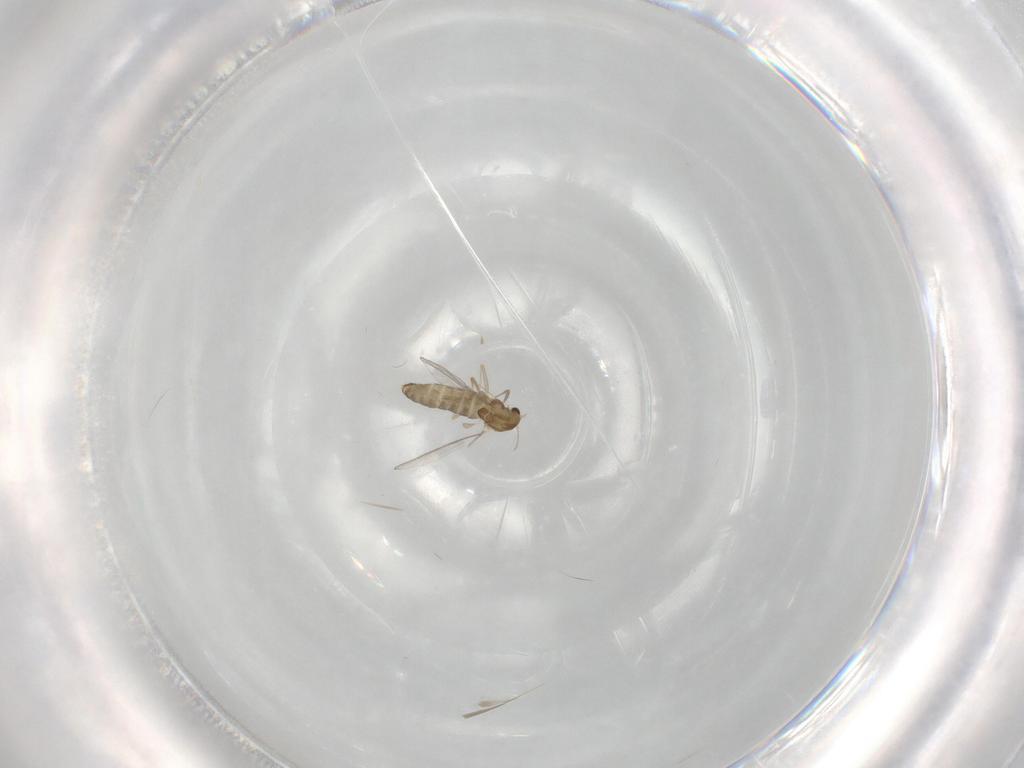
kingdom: Animalia
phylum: Arthropoda
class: Insecta
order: Diptera
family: Chironomidae
